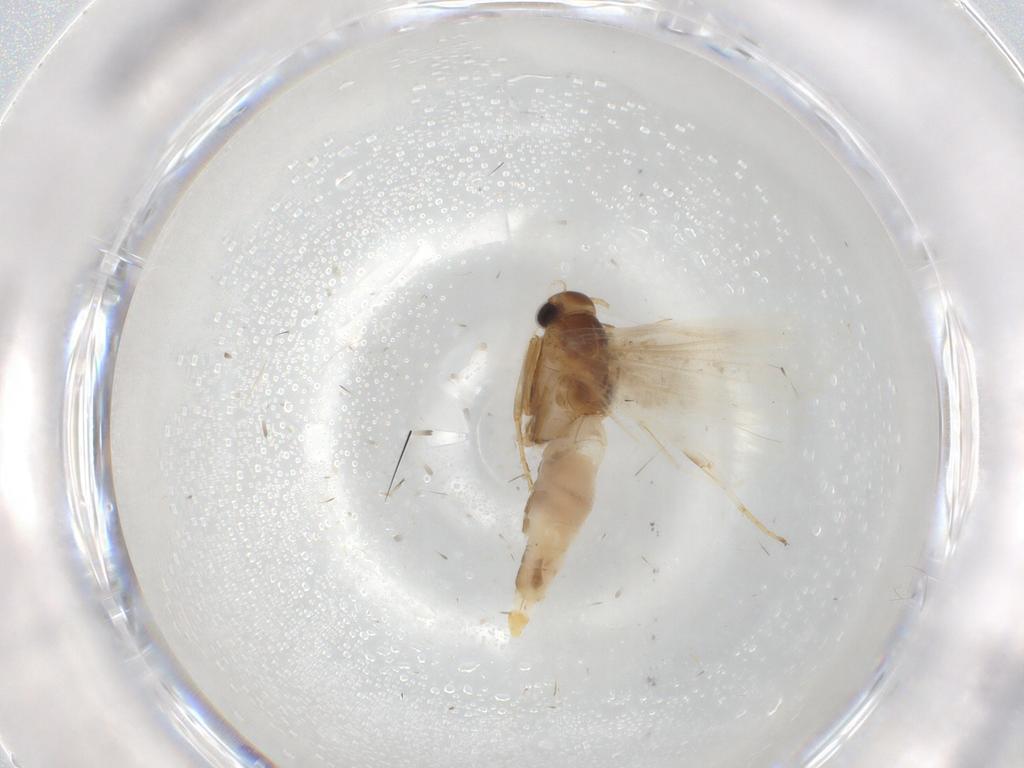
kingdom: Animalia
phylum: Arthropoda
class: Insecta
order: Lepidoptera
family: Gelechiidae
